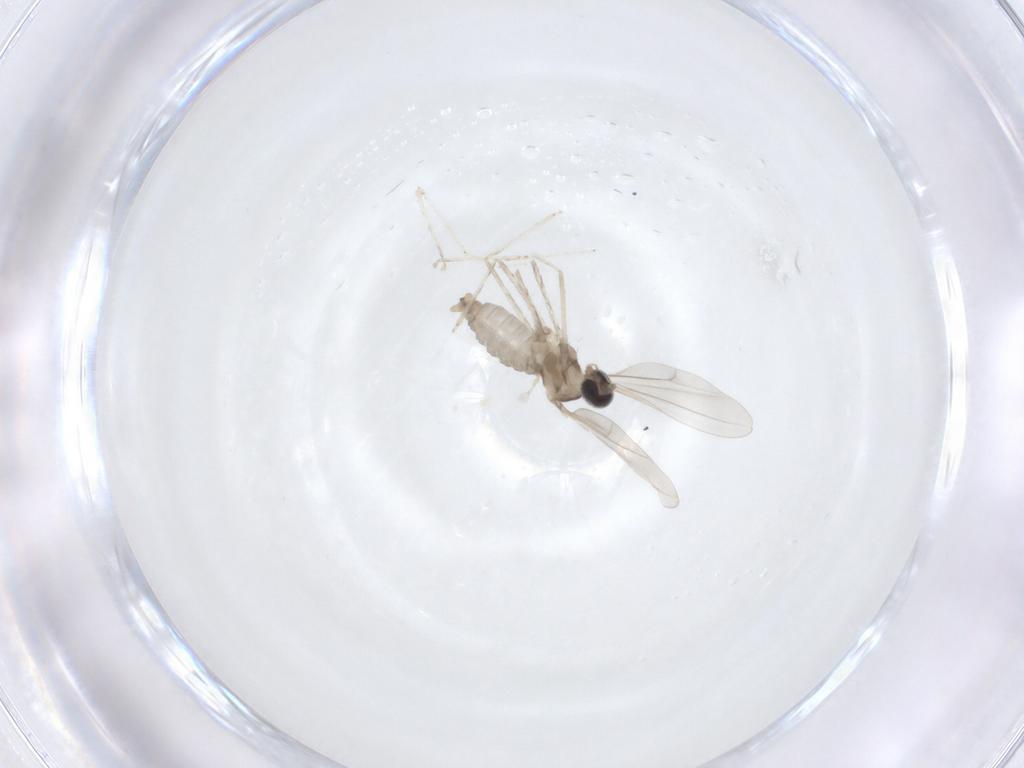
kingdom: Animalia
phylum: Arthropoda
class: Insecta
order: Diptera
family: Cecidomyiidae
